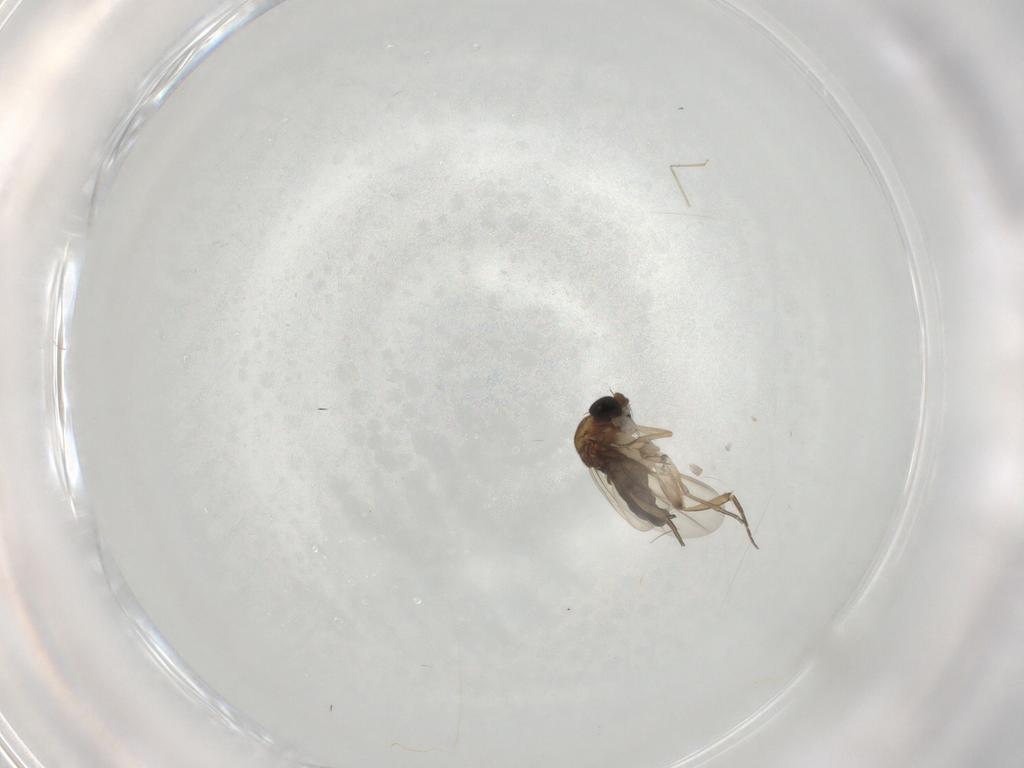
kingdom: Animalia
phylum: Arthropoda
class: Insecta
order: Diptera
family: Phoridae
